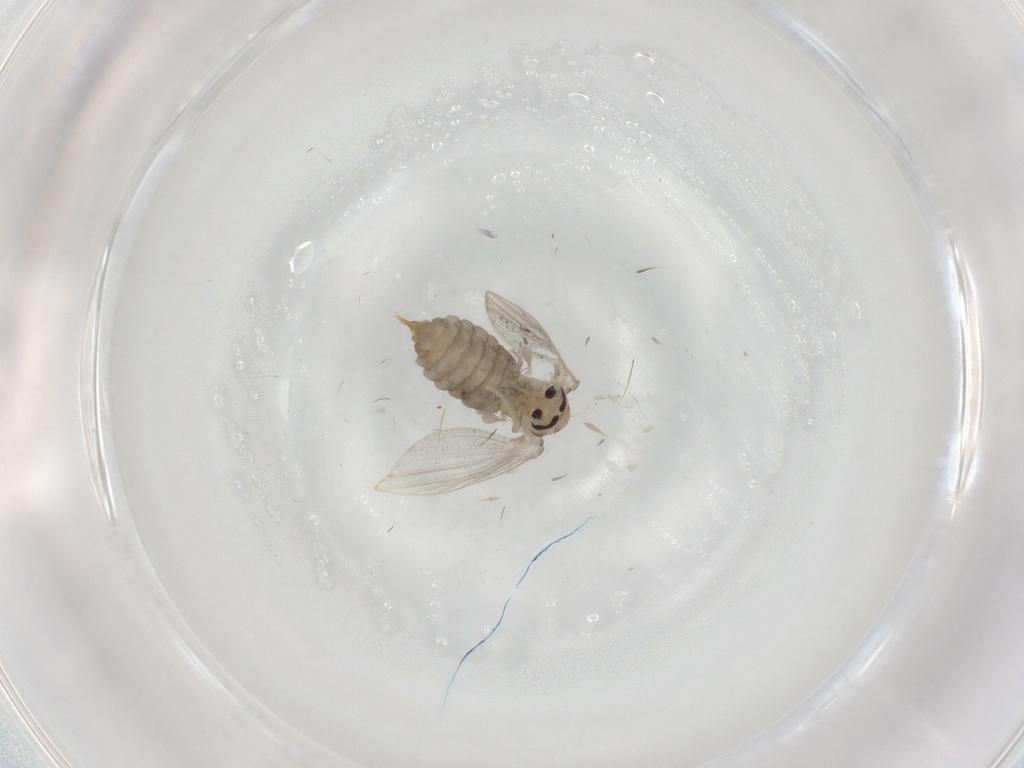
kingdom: Animalia
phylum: Arthropoda
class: Insecta
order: Diptera
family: Psychodidae
